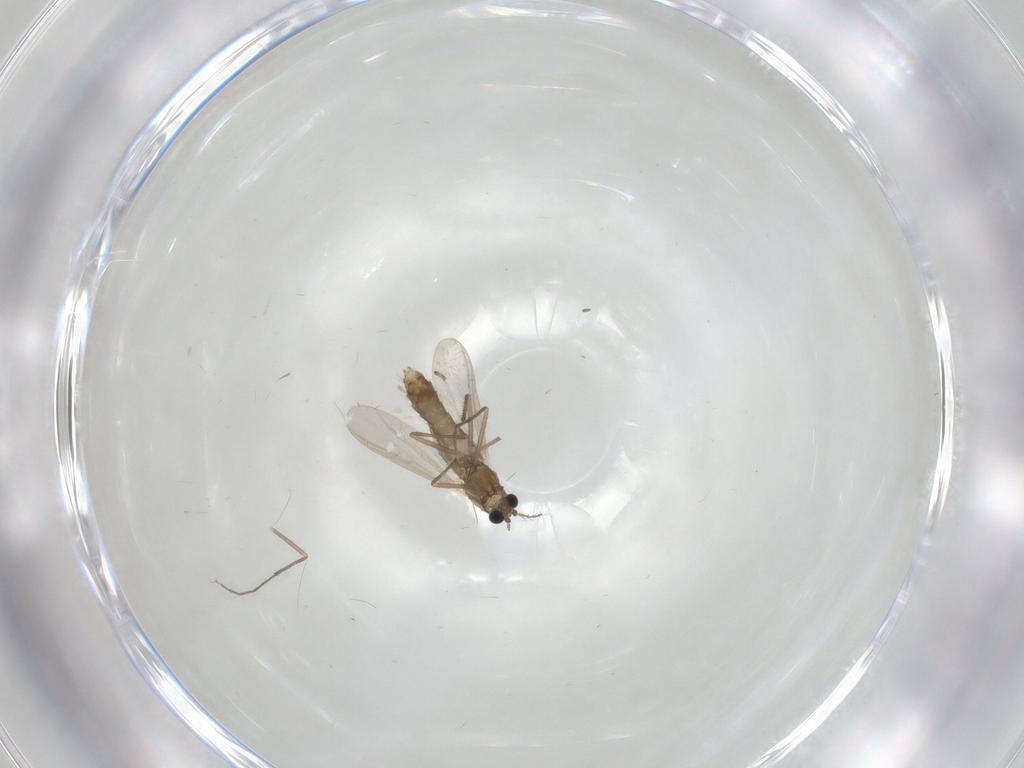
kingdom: Animalia
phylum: Arthropoda
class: Insecta
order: Diptera
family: Chironomidae
